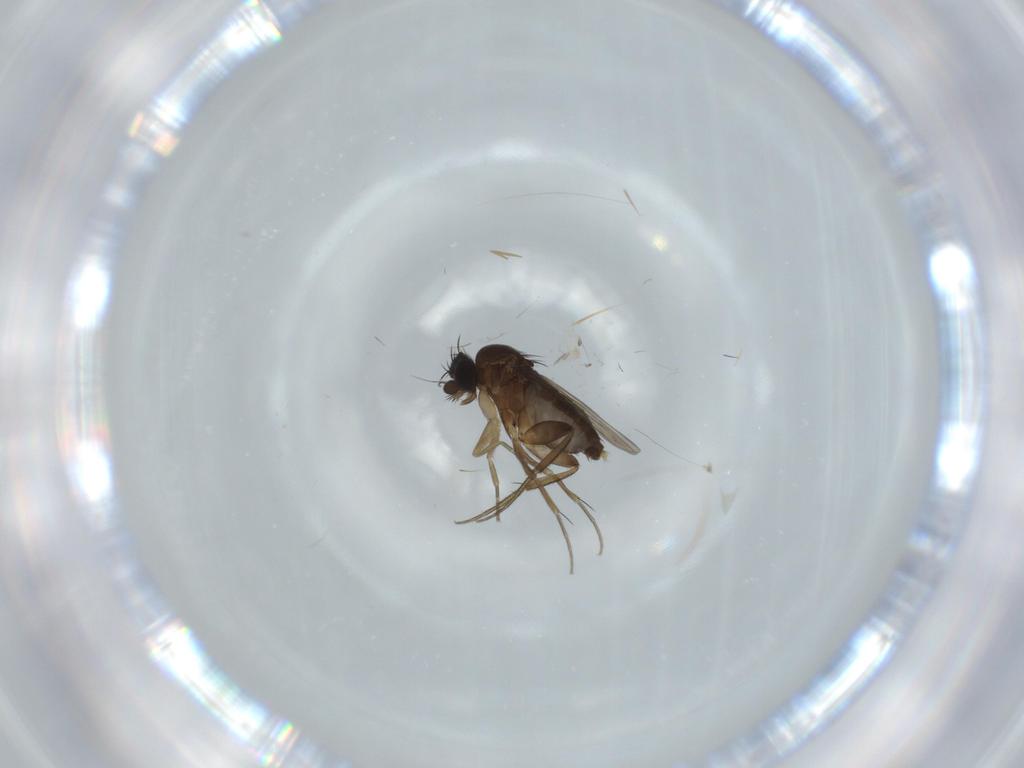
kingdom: Animalia
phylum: Arthropoda
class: Insecta
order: Diptera
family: Phoridae
